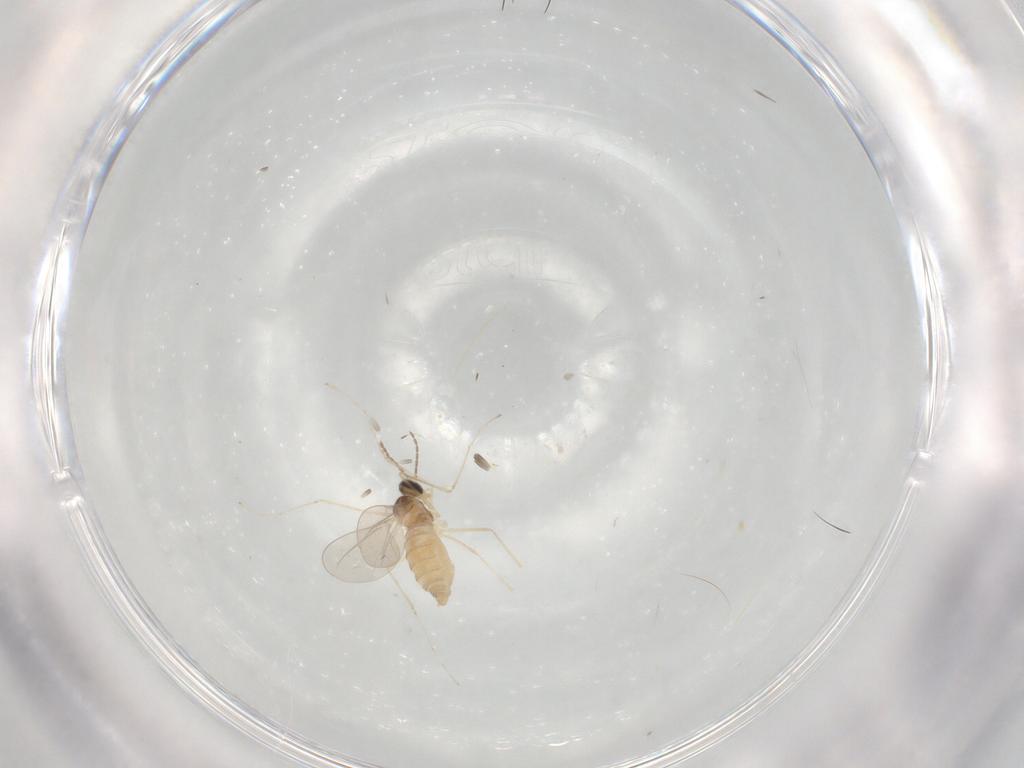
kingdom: Animalia
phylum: Arthropoda
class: Insecta
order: Diptera
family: Cecidomyiidae
